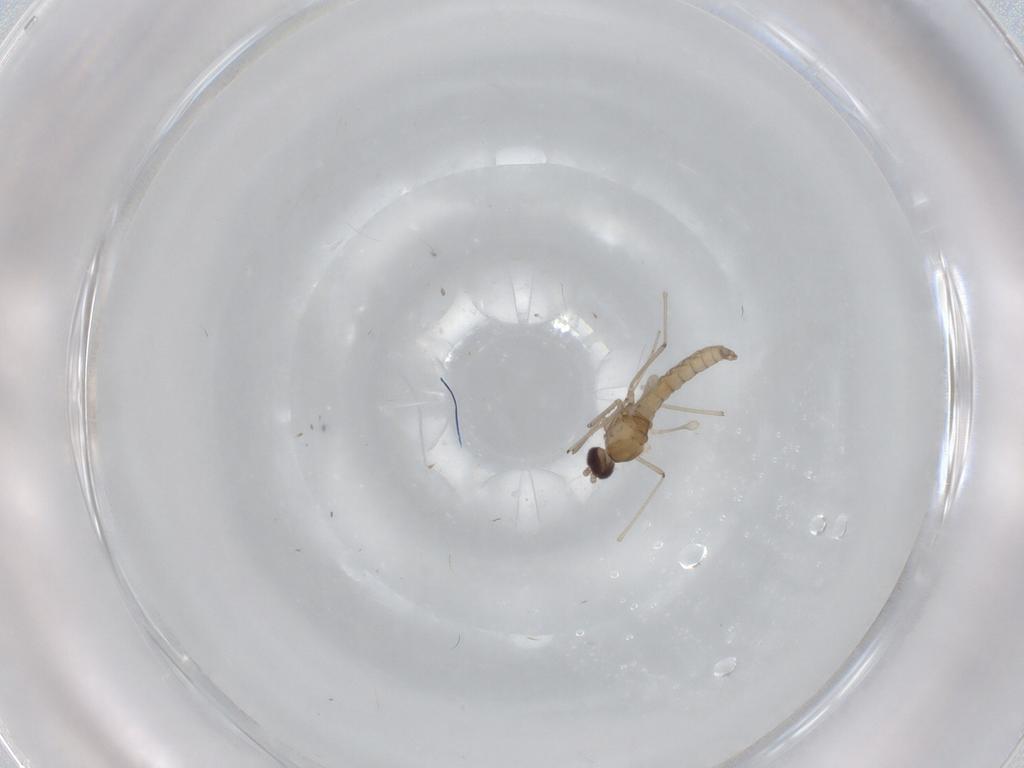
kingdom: Animalia
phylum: Arthropoda
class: Insecta
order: Diptera
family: Cecidomyiidae
